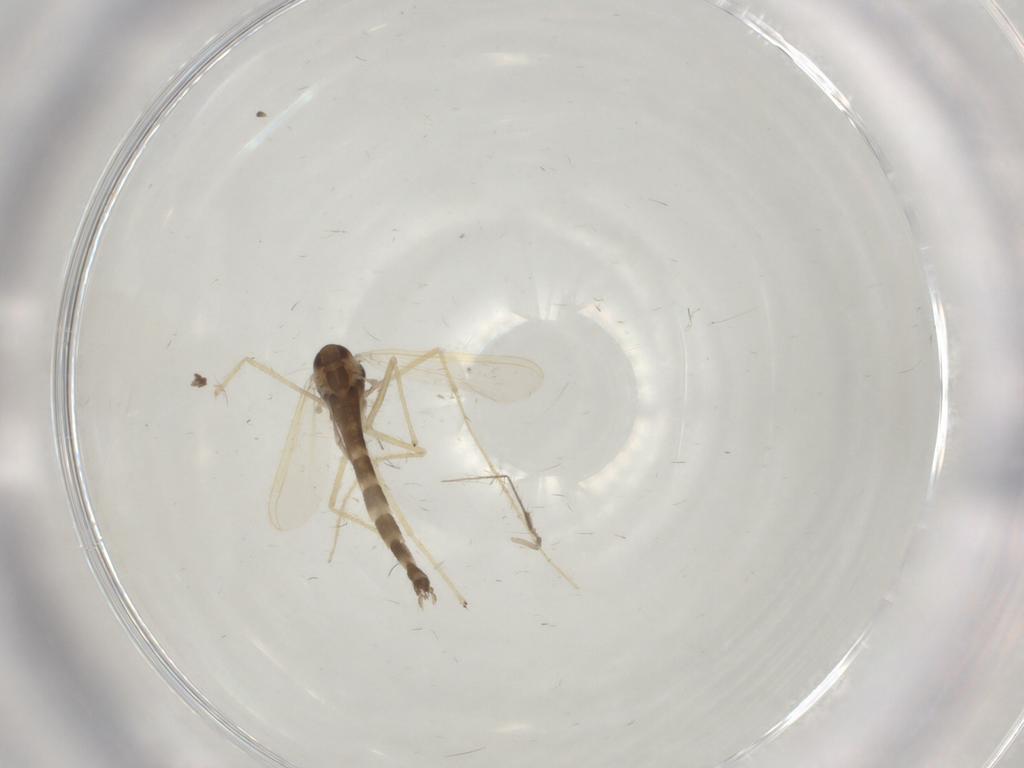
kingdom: Animalia
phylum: Arthropoda
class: Insecta
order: Diptera
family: Chironomidae
